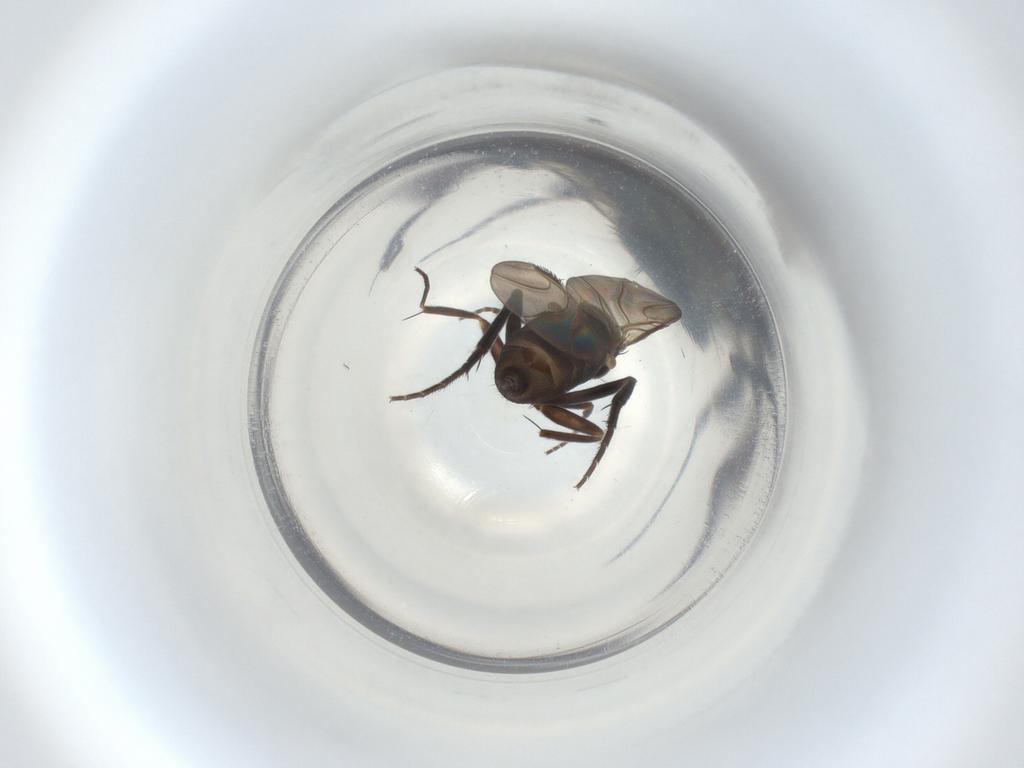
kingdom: Animalia
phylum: Arthropoda
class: Insecta
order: Diptera
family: Phoridae
